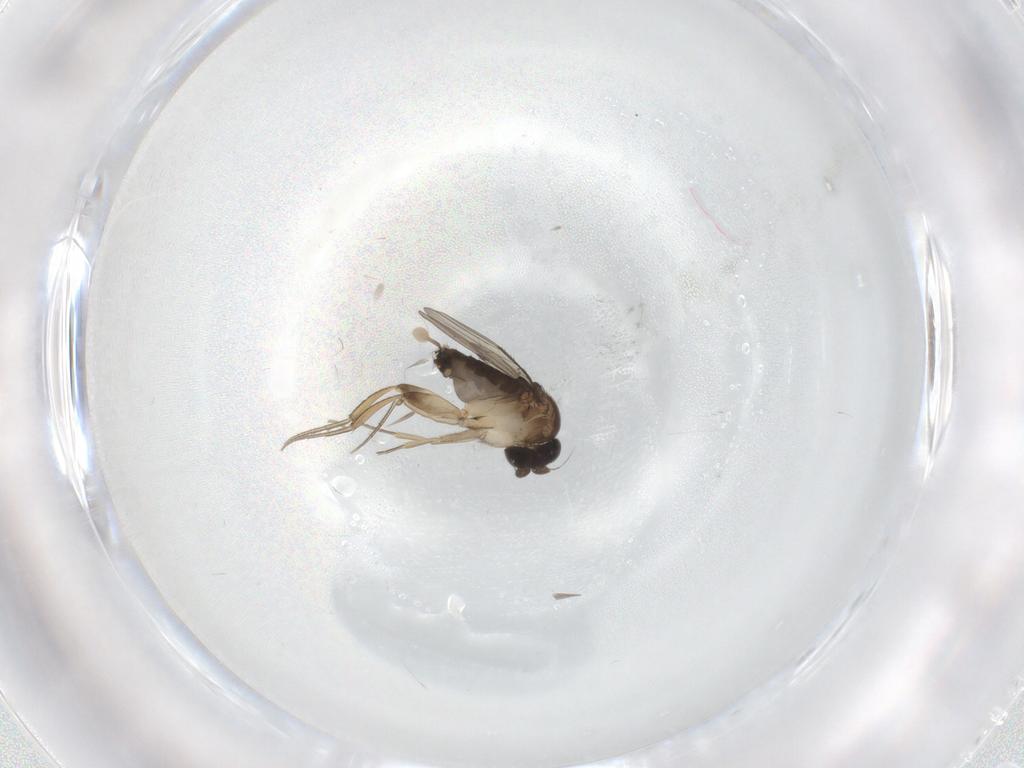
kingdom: Animalia
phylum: Arthropoda
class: Insecta
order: Diptera
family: Phoridae
